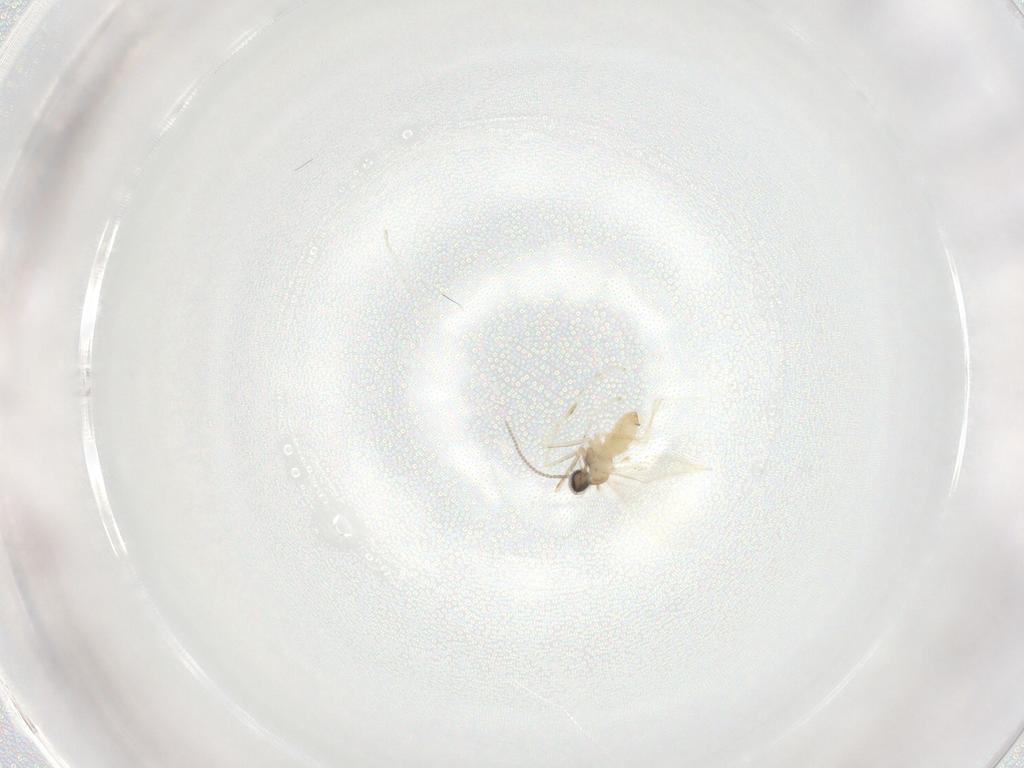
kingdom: Animalia
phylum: Arthropoda
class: Insecta
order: Diptera
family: Cecidomyiidae
